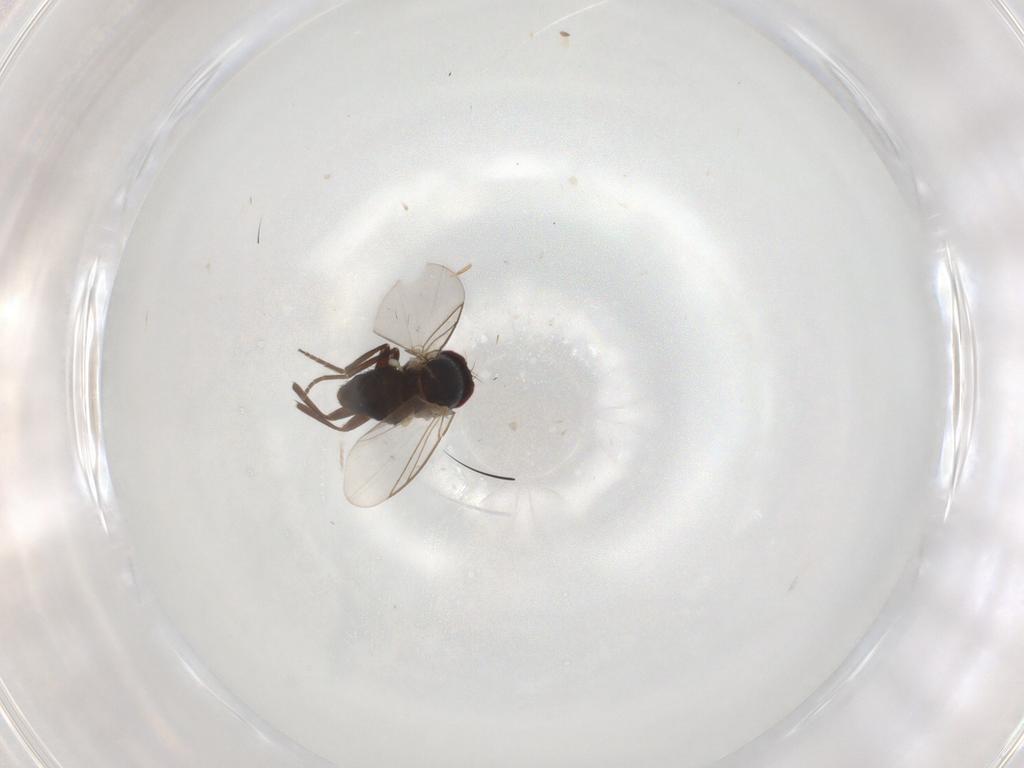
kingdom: Animalia
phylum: Arthropoda
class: Insecta
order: Diptera
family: Scatopsidae
